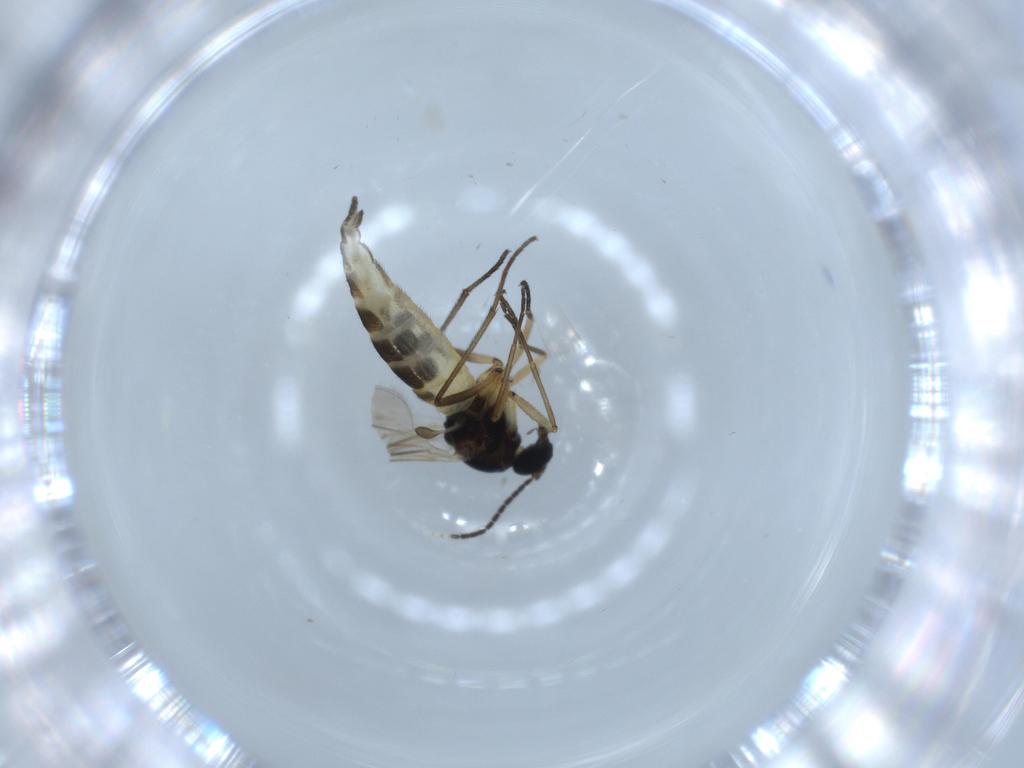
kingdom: Animalia
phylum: Arthropoda
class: Insecta
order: Diptera
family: Sciaridae
